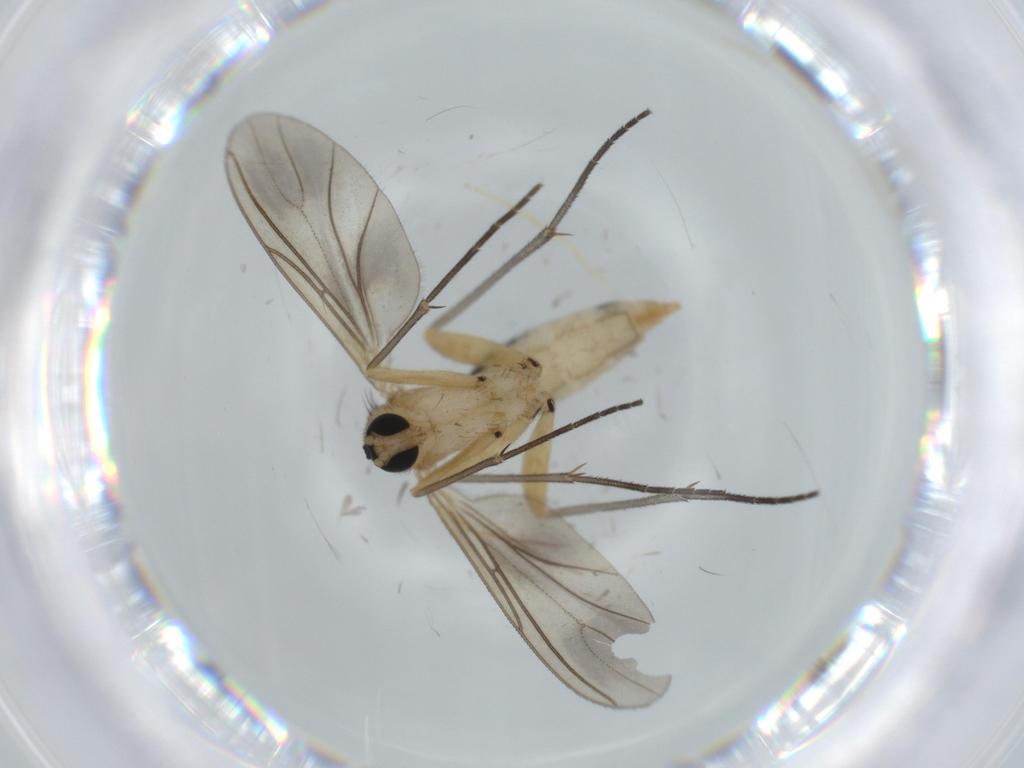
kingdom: Animalia
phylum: Arthropoda
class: Insecta
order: Diptera
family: Sciaridae
